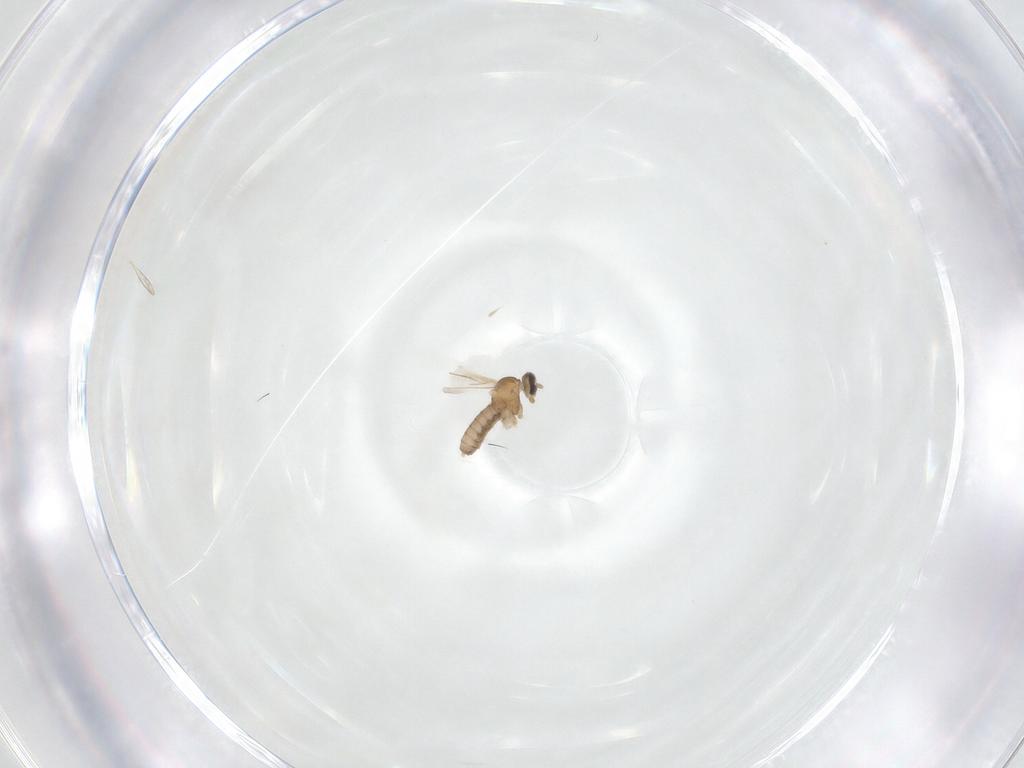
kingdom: Animalia
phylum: Arthropoda
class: Insecta
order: Diptera
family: Cecidomyiidae
